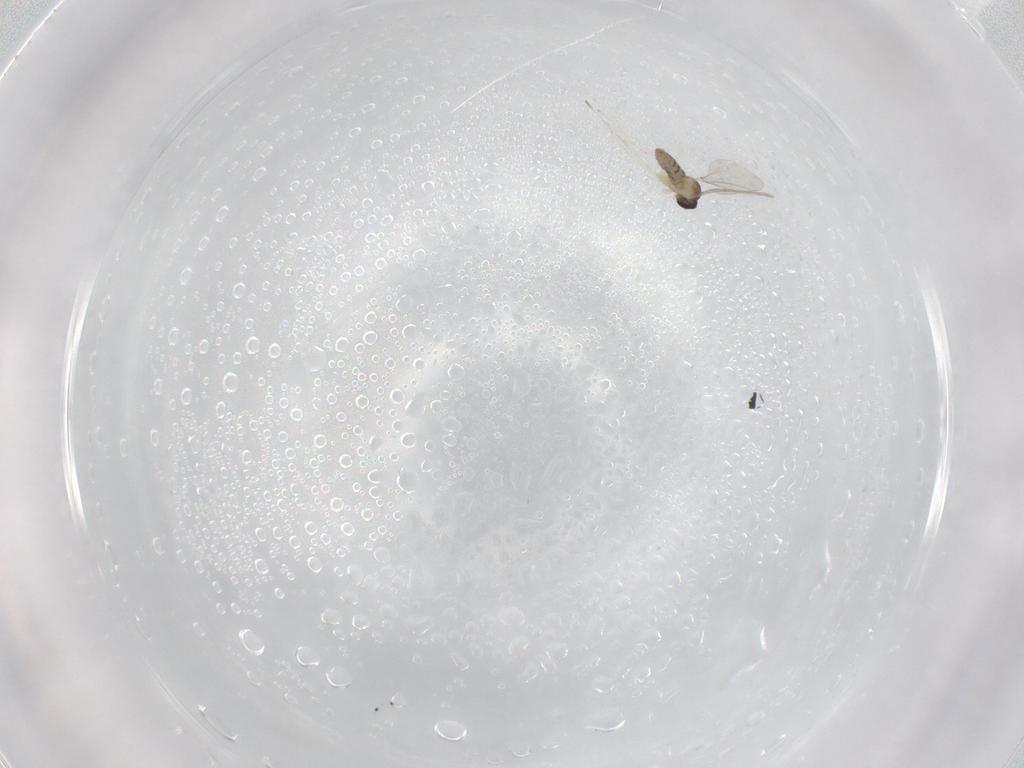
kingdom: Animalia
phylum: Arthropoda
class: Insecta
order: Diptera
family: Cecidomyiidae
